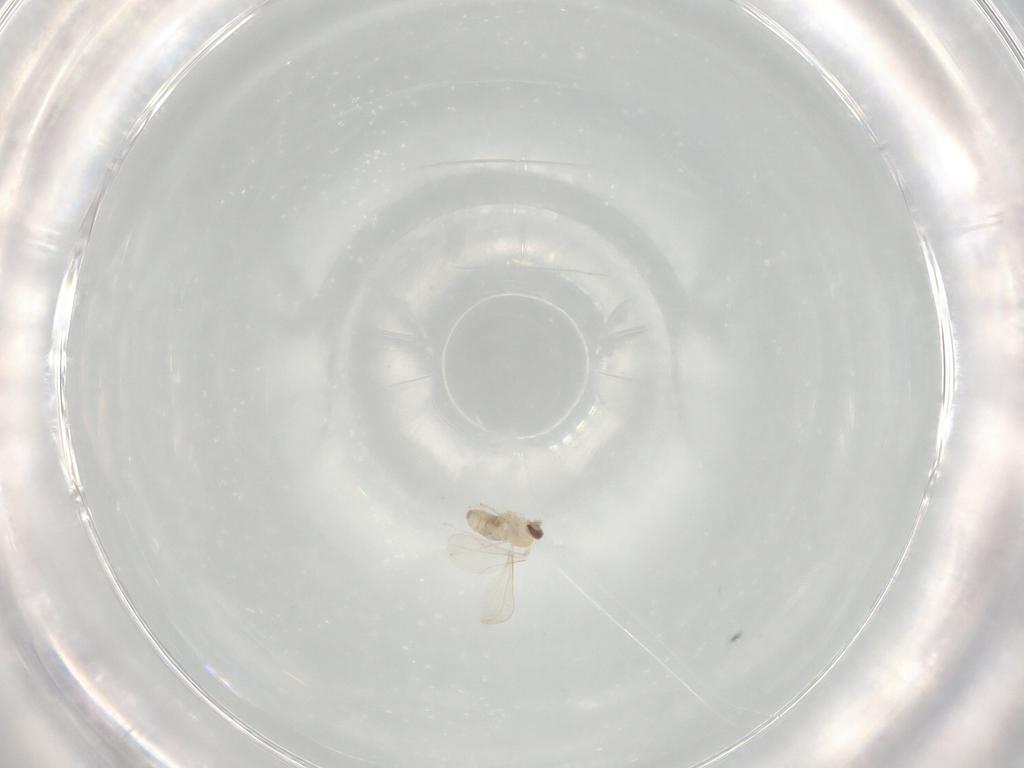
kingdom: Animalia
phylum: Arthropoda
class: Insecta
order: Diptera
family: Cecidomyiidae
